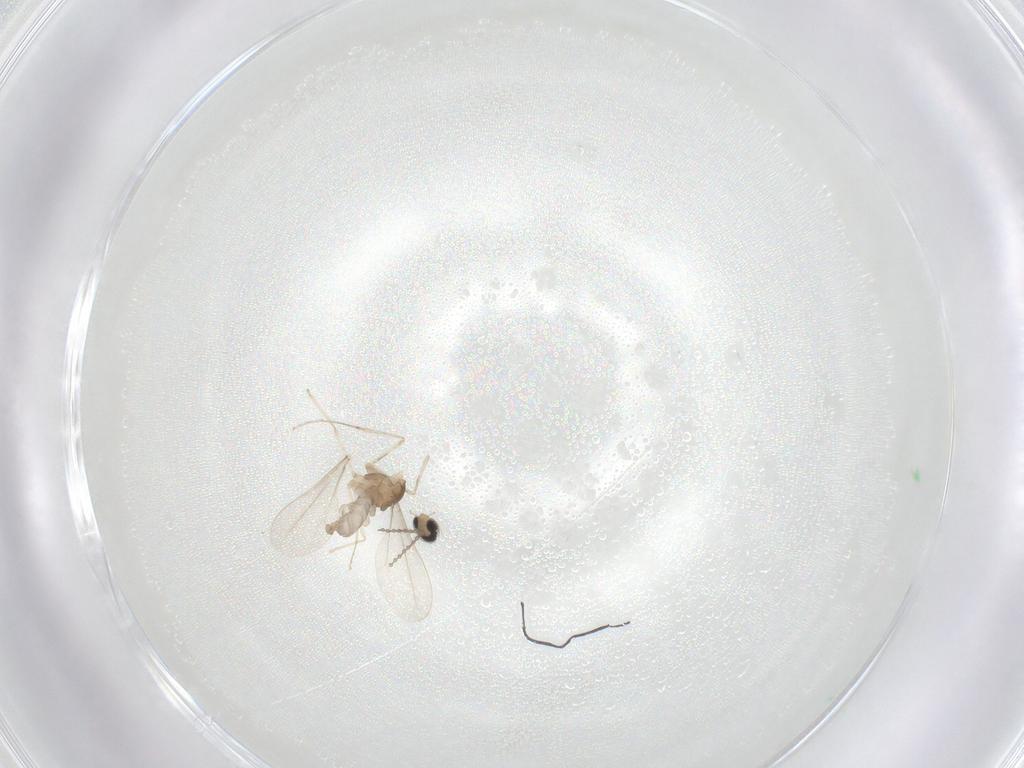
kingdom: Animalia
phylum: Arthropoda
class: Insecta
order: Diptera
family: Cecidomyiidae
